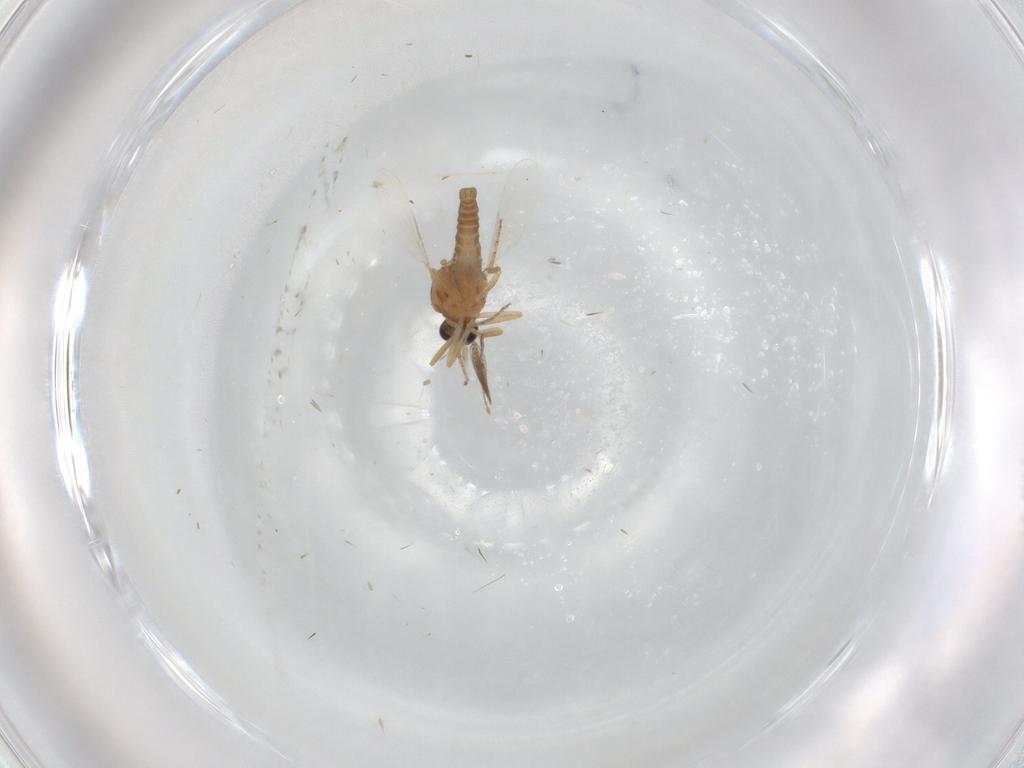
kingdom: Animalia
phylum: Arthropoda
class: Insecta
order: Diptera
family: Ceratopogonidae
